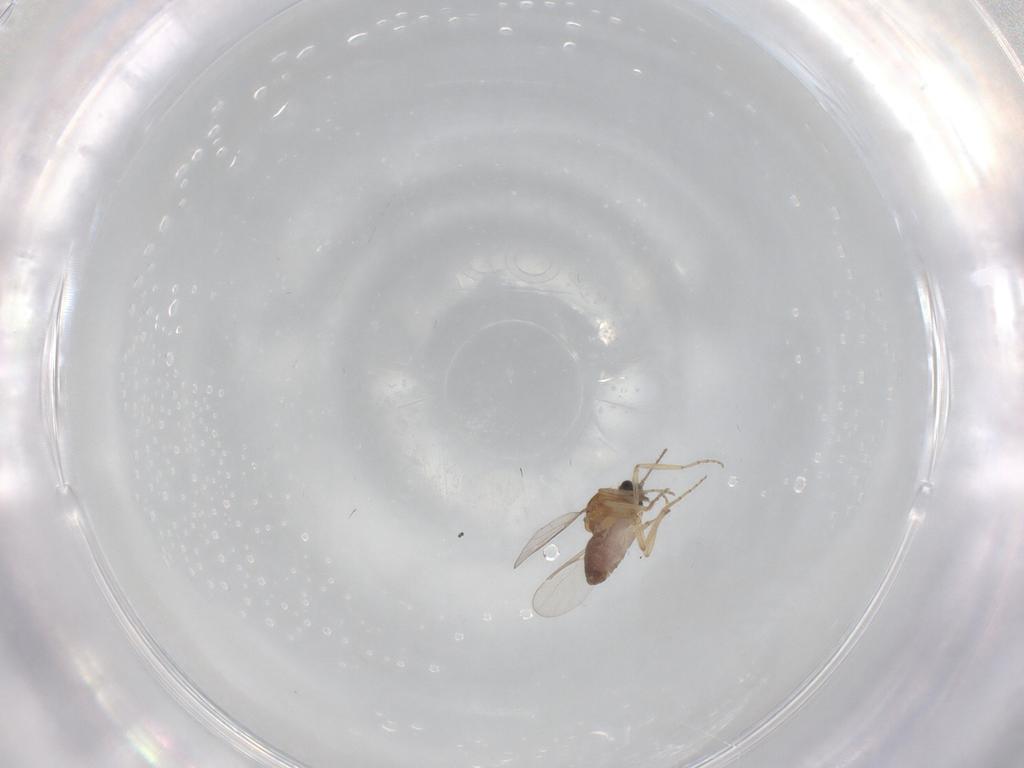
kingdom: Animalia
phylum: Arthropoda
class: Insecta
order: Diptera
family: Ceratopogonidae
